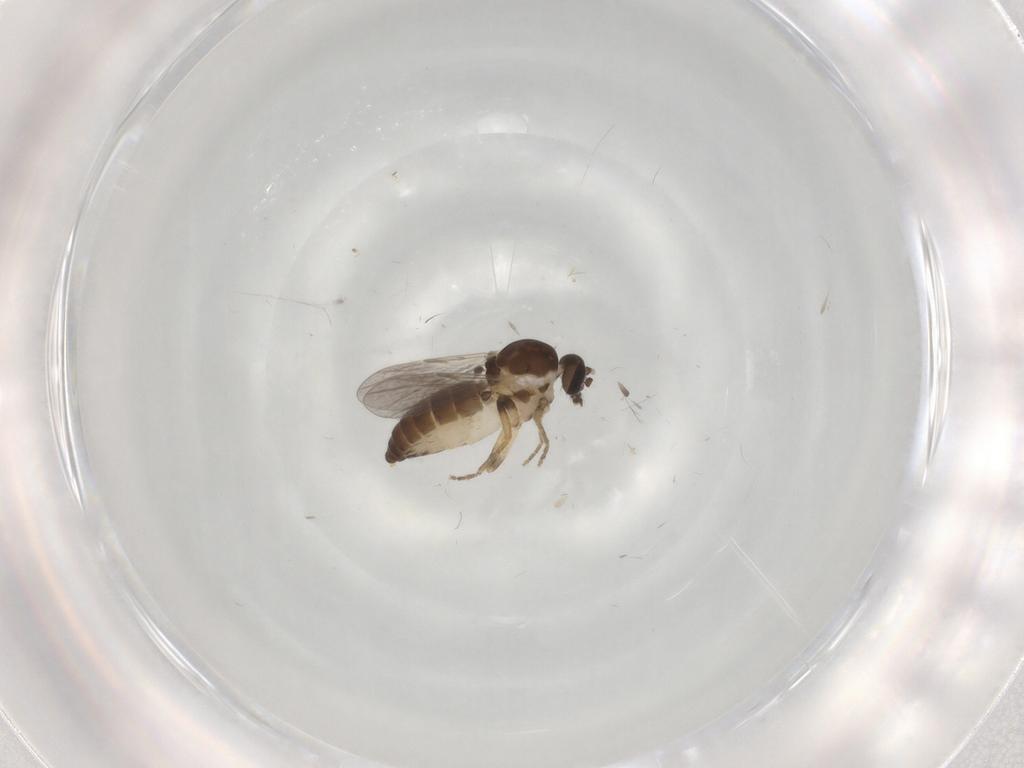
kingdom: Animalia
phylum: Arthropoda
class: Insecta
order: Diptera
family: Ceratopogonidae
